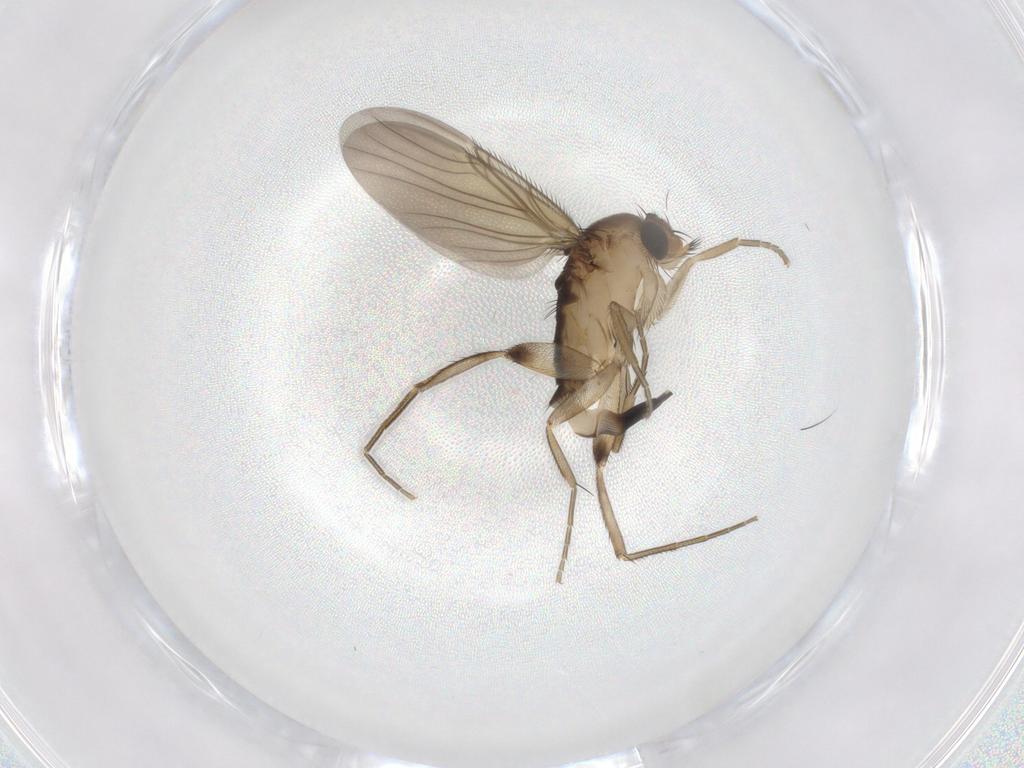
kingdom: Animalia
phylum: Arthropoda
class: Insecta
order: Diptera
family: Phoridae
